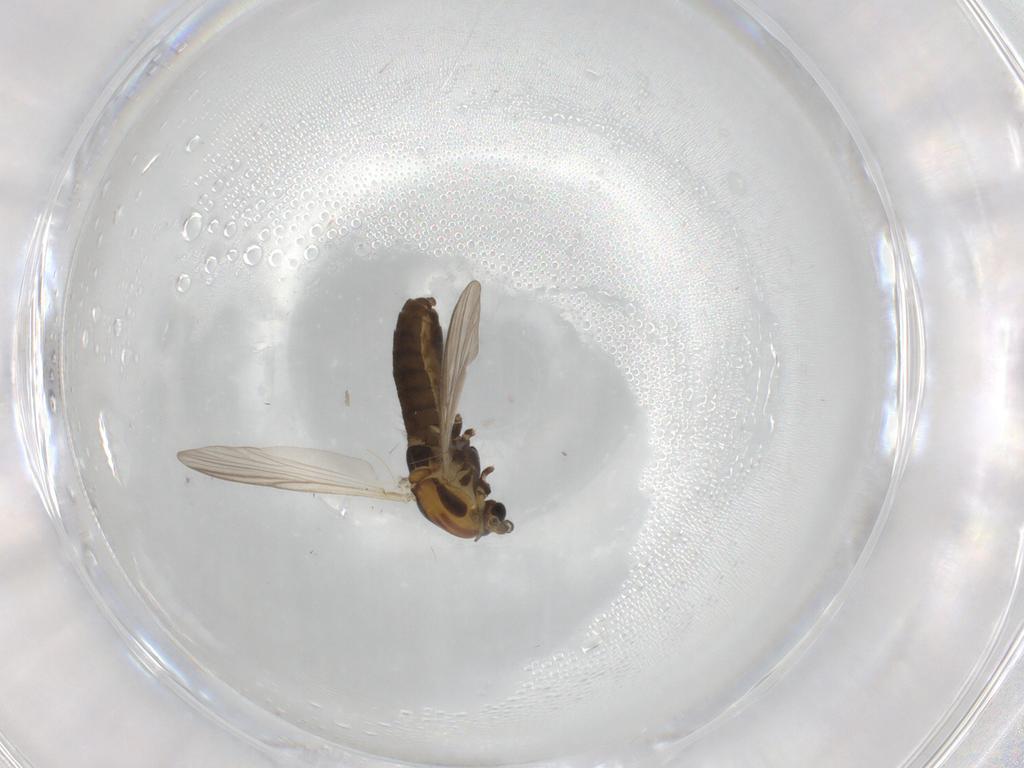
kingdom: Animalia
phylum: Arthropoda
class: Insecta
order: Diptera
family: Chironomidae
